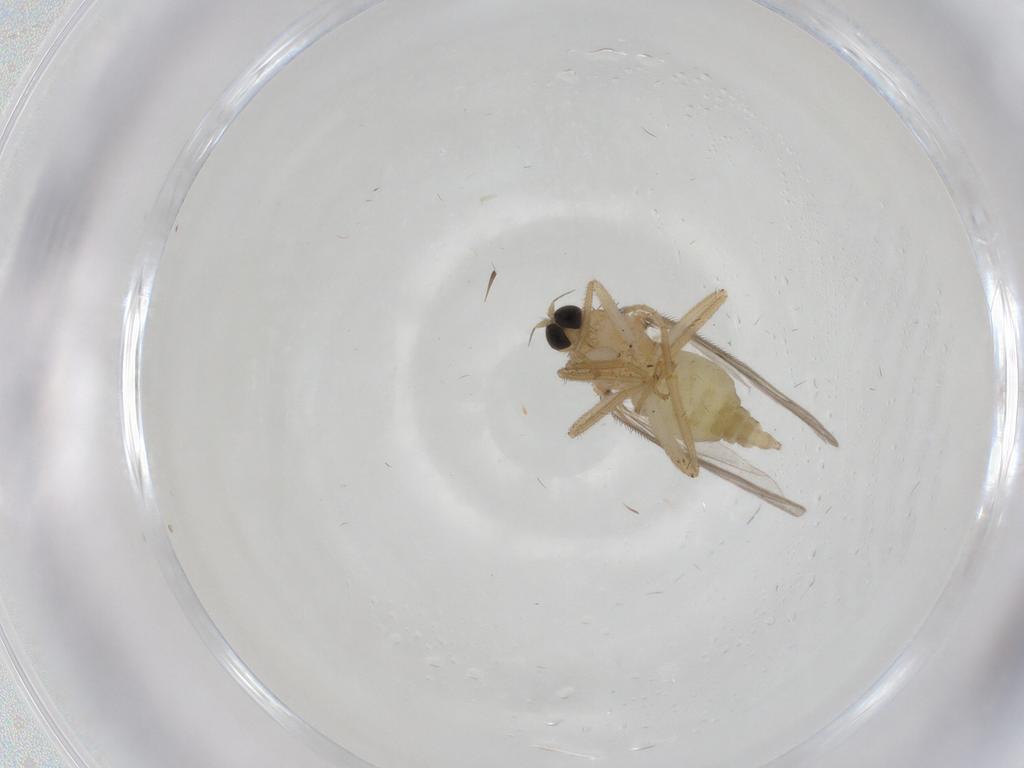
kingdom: Animalia
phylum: Arthropoda
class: Insecta
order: Diptera
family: Hybotidae
